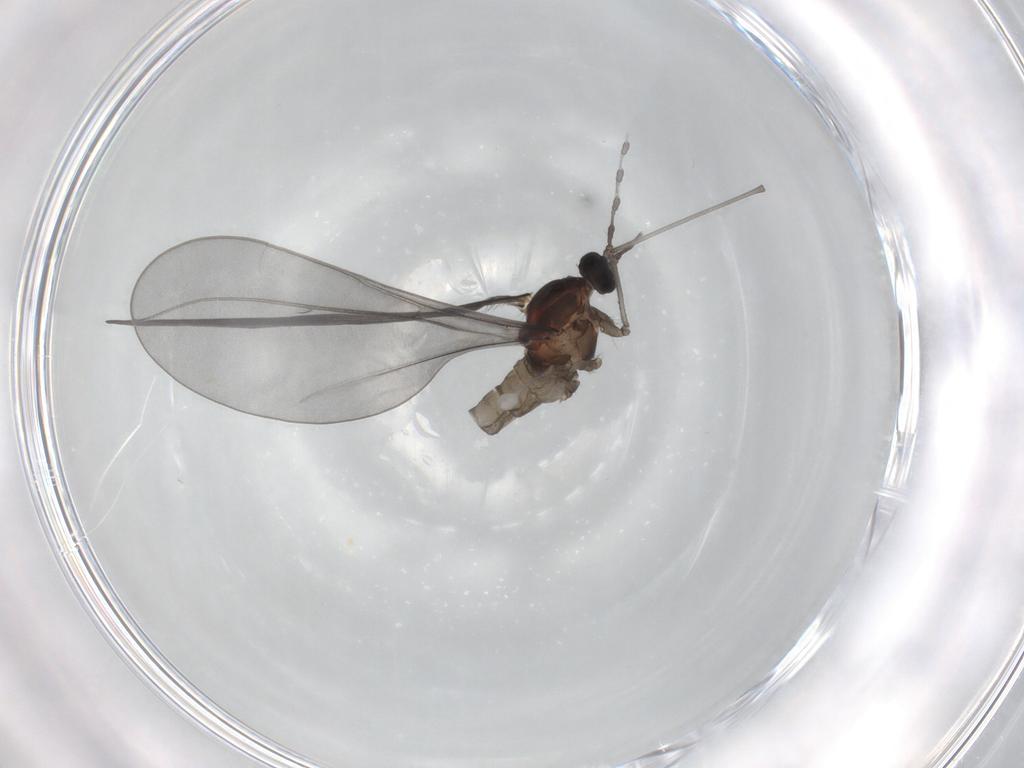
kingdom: Animalia
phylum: Arthropoda
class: Insecta
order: Diptera
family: Cecidomyiidae
